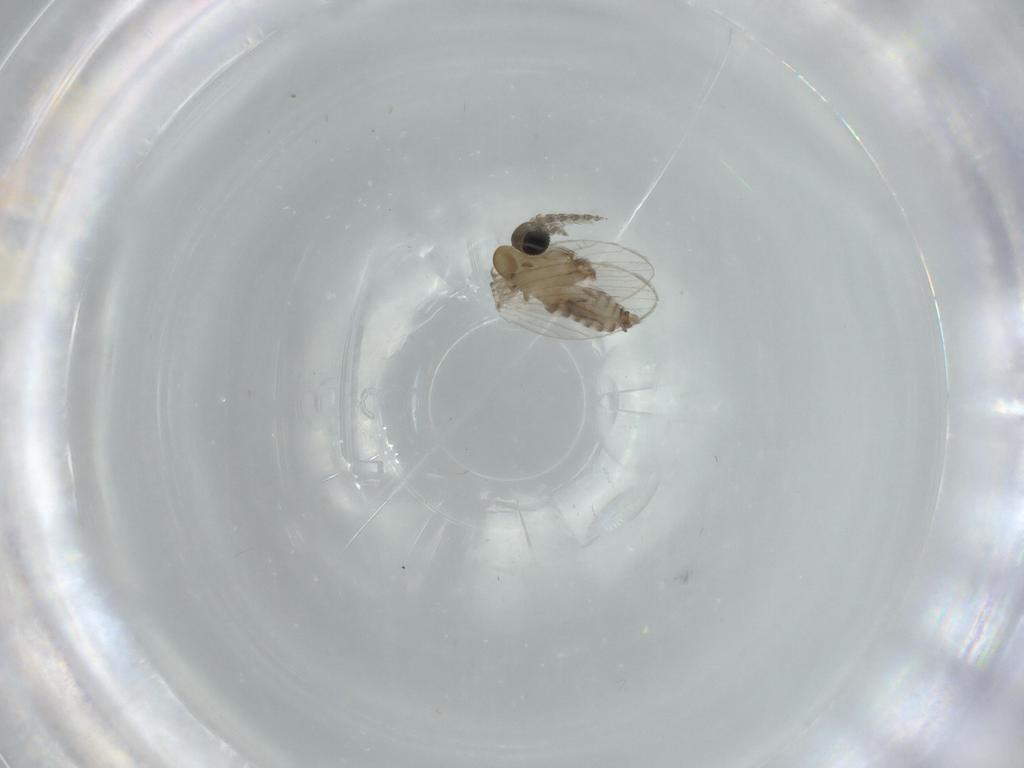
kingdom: Animalia
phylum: Arthropoda
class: Insecta
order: Diptera
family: Psychodidae
